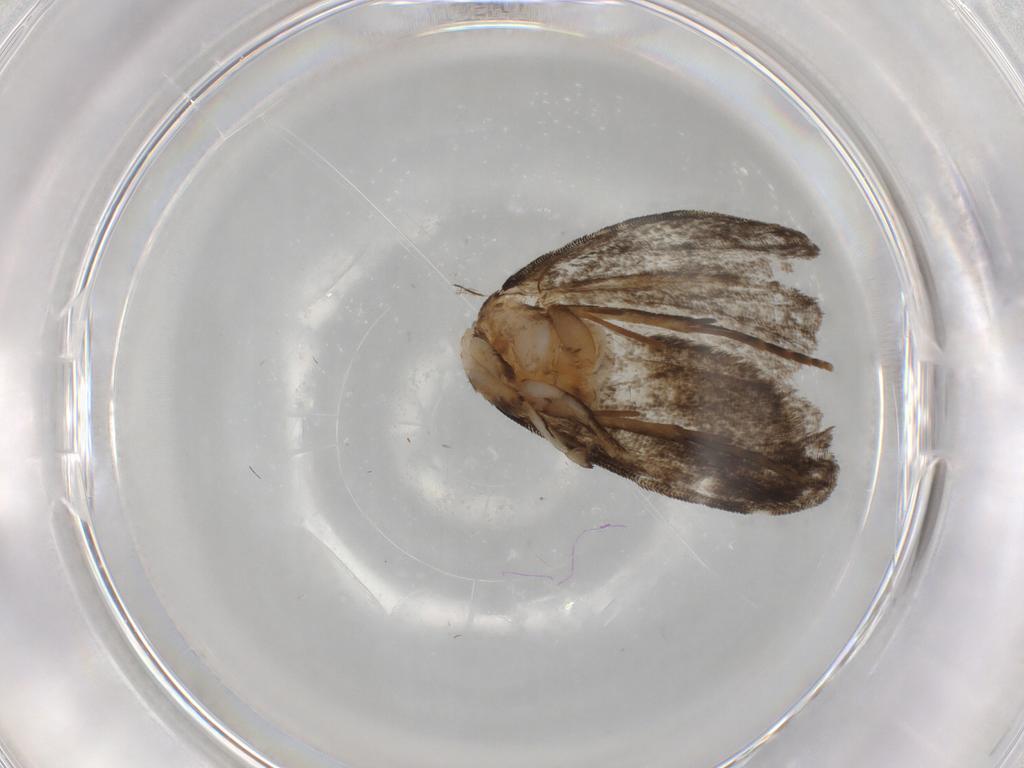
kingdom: Animalia
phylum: Arthropoda
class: Insecta
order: Lepidoptera
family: Dryadaulidae
